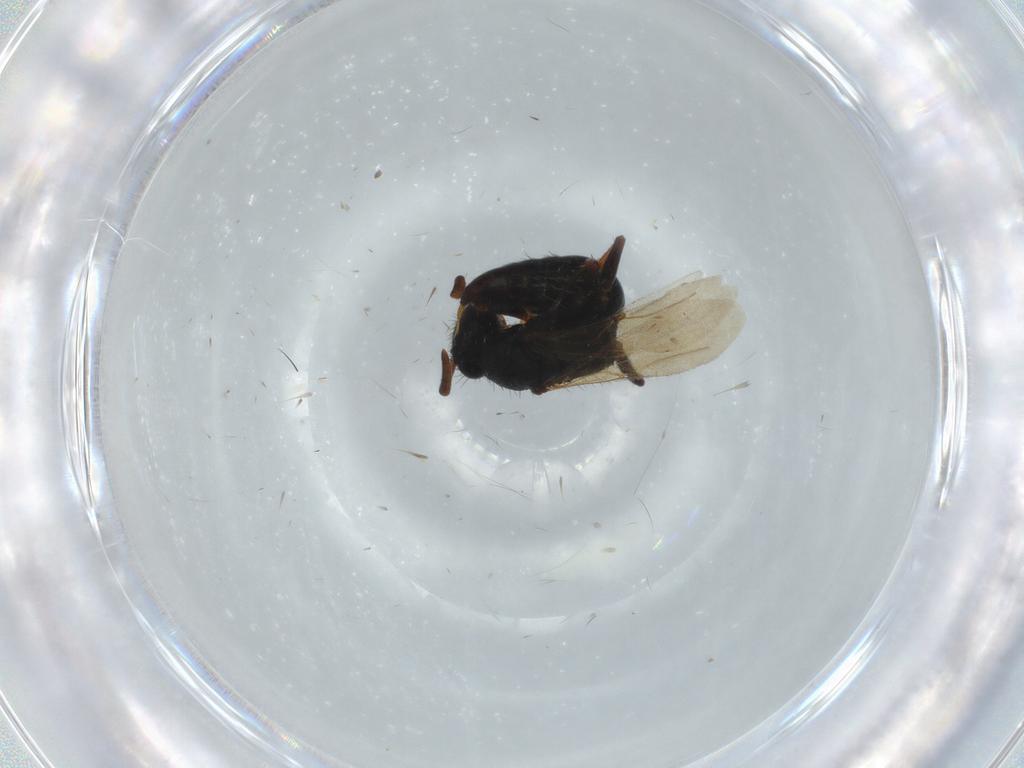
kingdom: Animalia
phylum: Arthropoda
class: Insecta
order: Hymenoptera
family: Bethylidae
